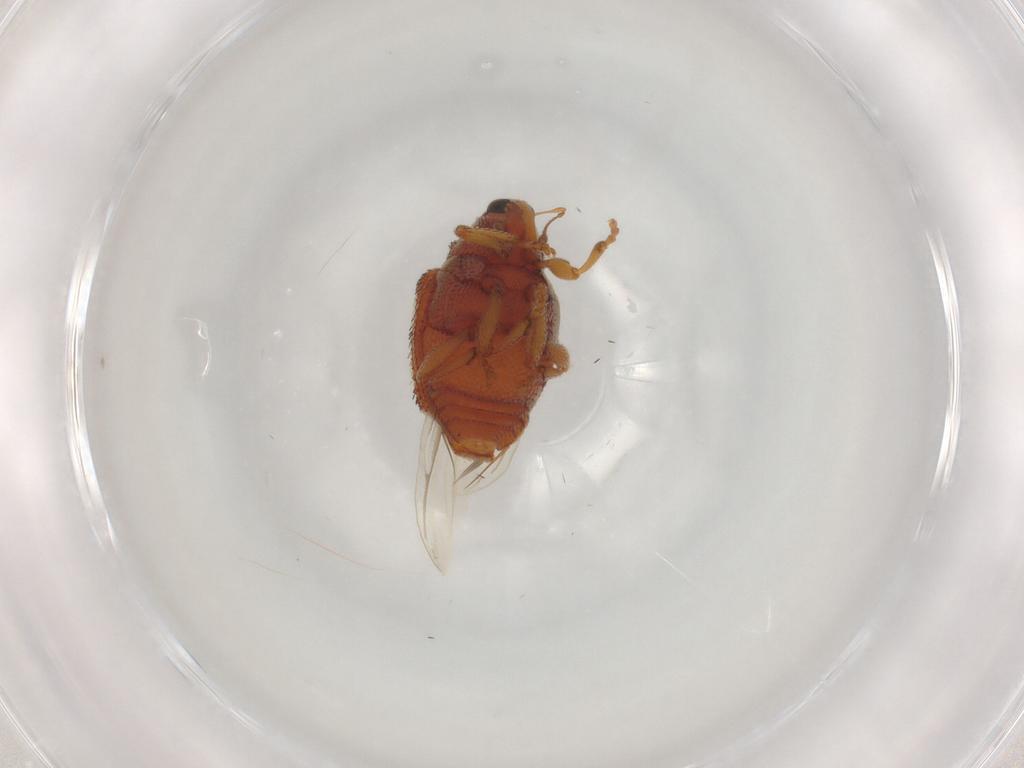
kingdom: Animalia
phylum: Arthropoda
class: Insecta
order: Coleoptera
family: Curculionidae
